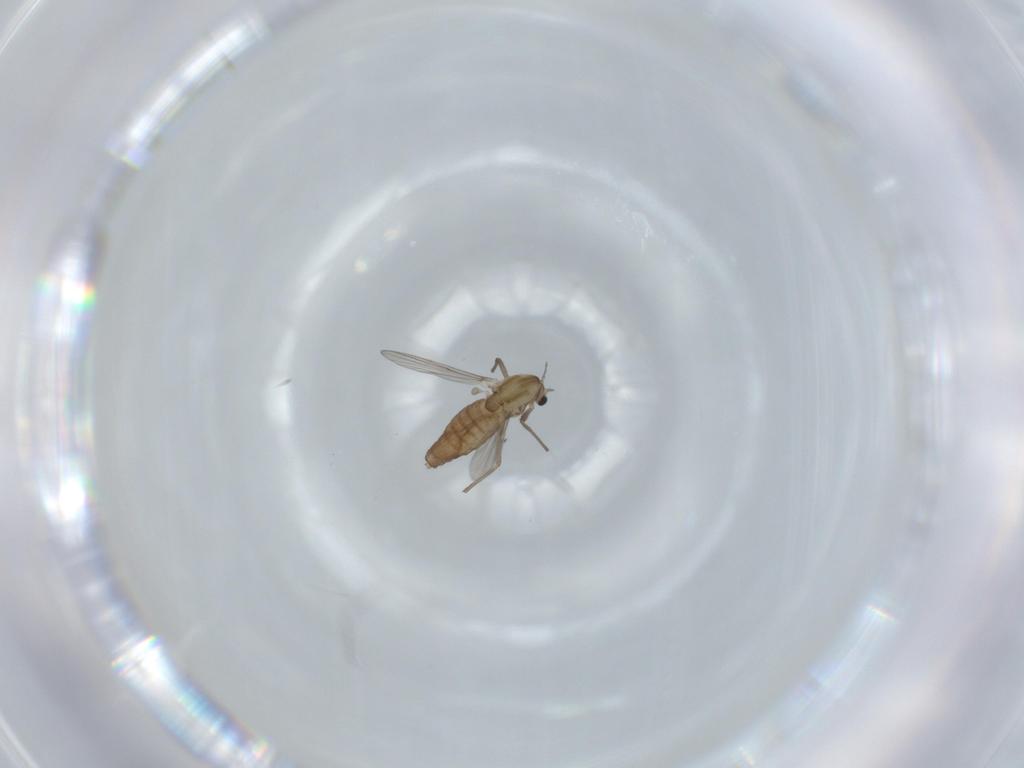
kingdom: Animalia
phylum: Arthropoda
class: Insecta
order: Diptera
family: Chironomidae
